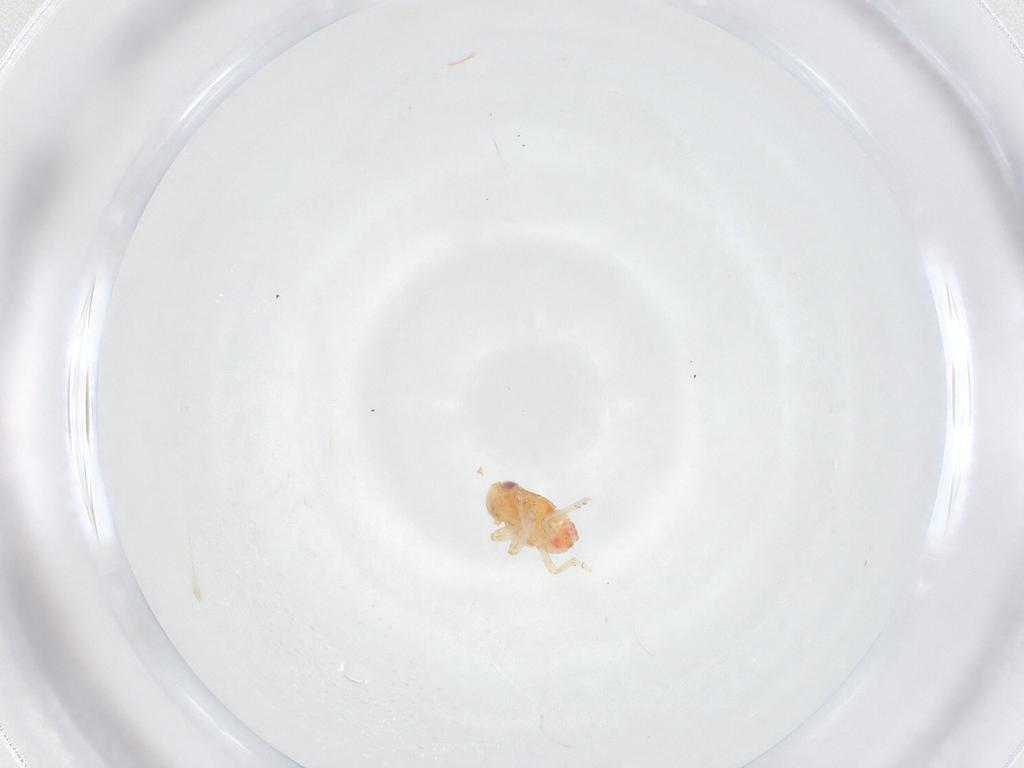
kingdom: Animalia
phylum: Arthropoda
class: Insecta
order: Hemiptera
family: Issidae
